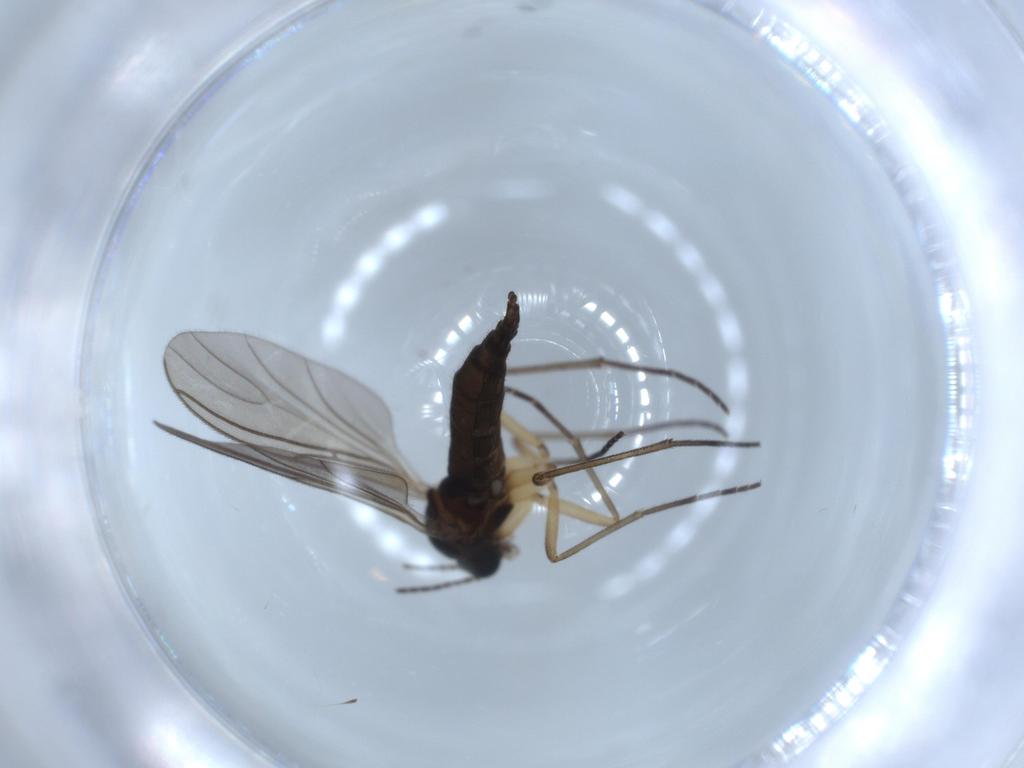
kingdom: Animalia
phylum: Arthropoda
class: Insecta
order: Diptera
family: Sciaridae
